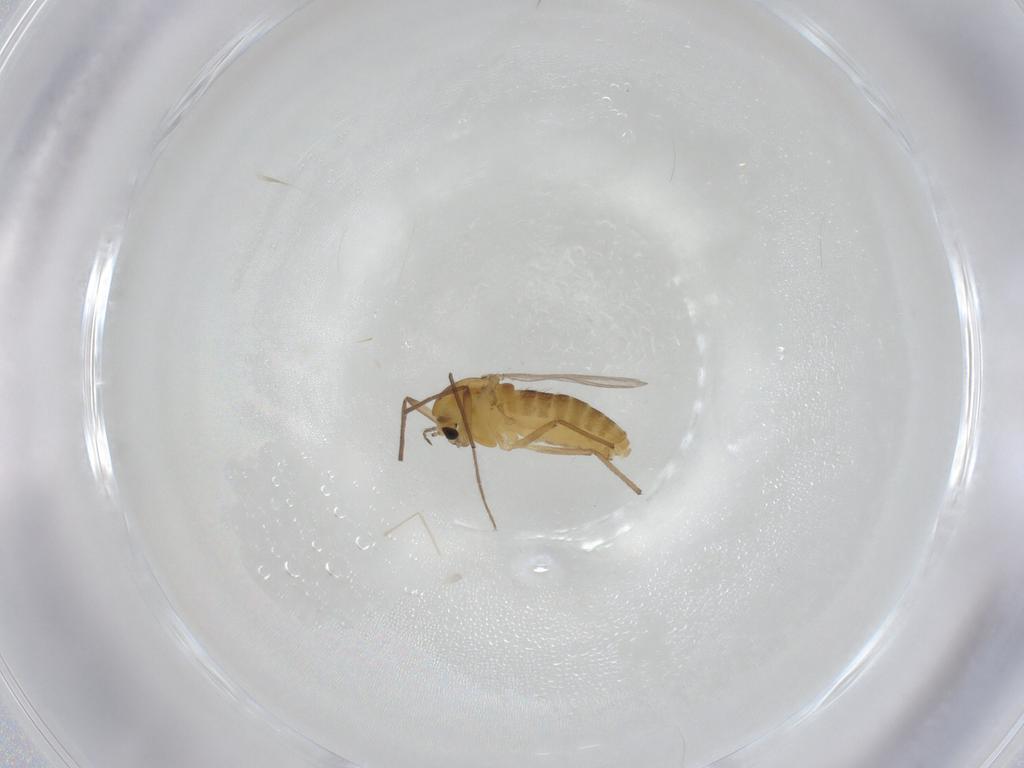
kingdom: Animalia
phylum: Arthropoda
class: Insecta
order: Diptera
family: Chironomidae
